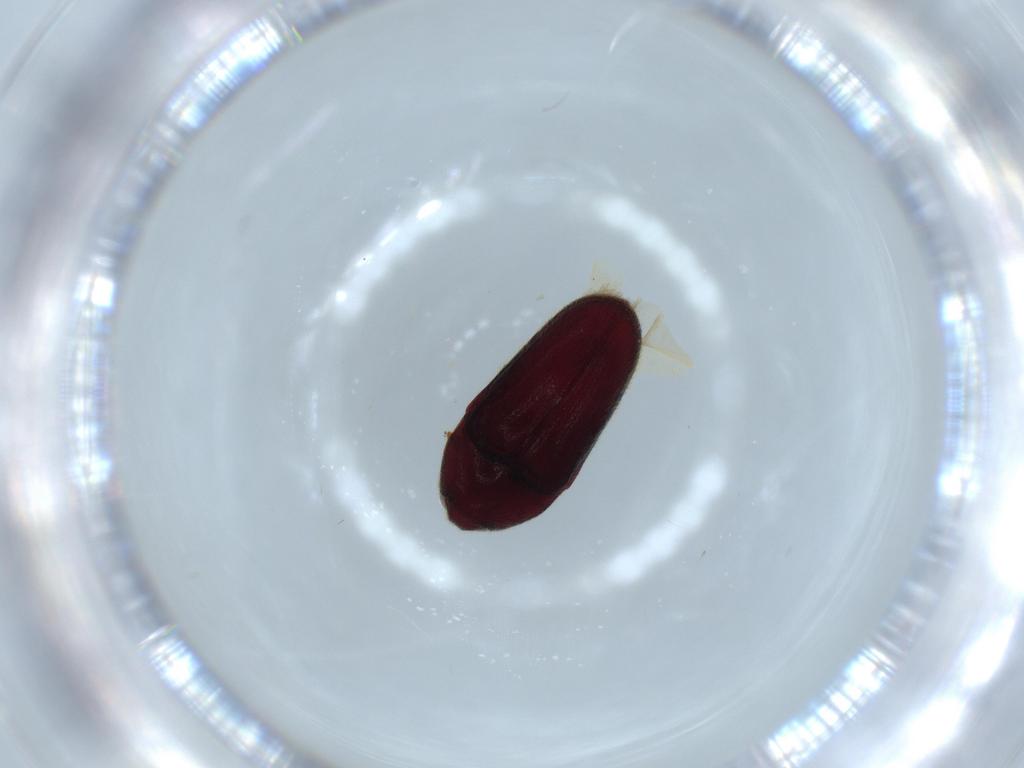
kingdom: Animalia
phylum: Arthropoda
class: Insecta
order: Coleoptera
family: Throscidae
